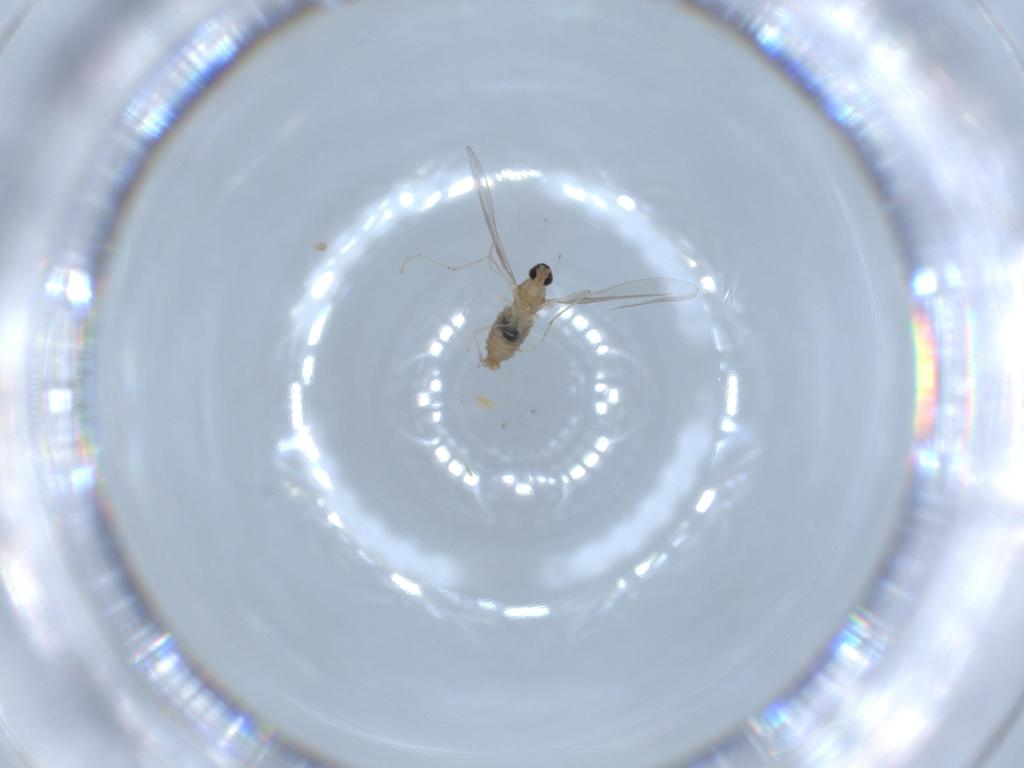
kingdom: Animalia
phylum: Arthropoda
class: Insecta
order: Diptera
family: Cecidomyiidae
